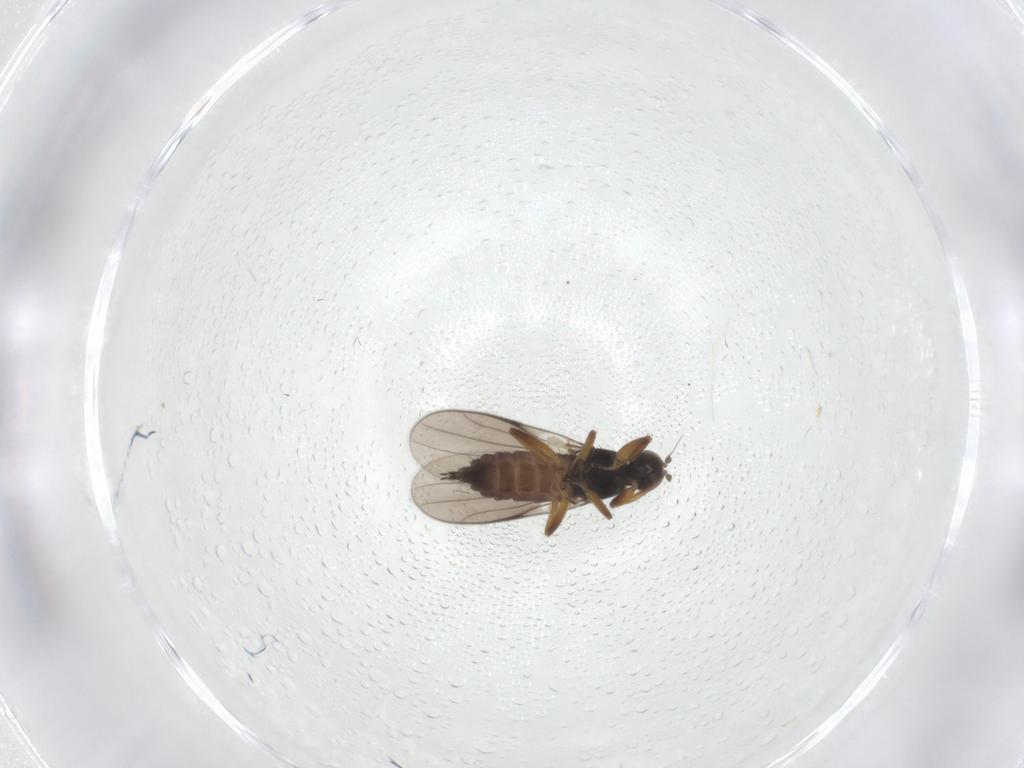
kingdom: Animalia
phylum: Arthropoda
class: Insecta
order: Diptera
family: Hybotidae
